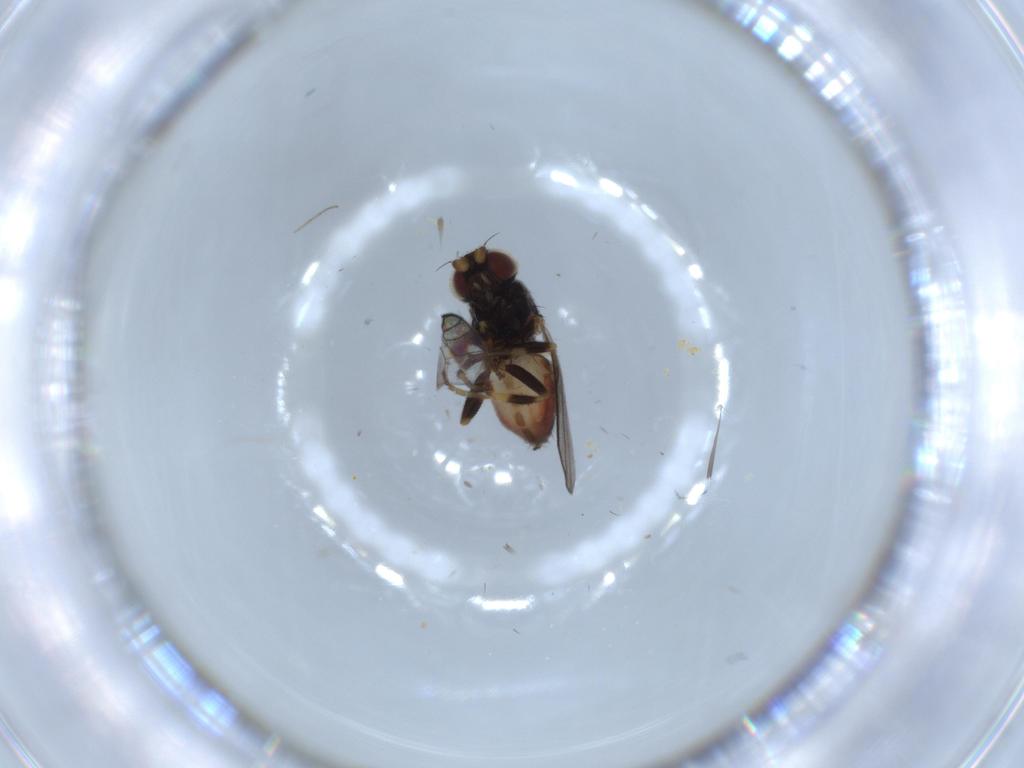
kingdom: Animalia
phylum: Arthropoda
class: Insecta
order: Diptera
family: Chloropidae
